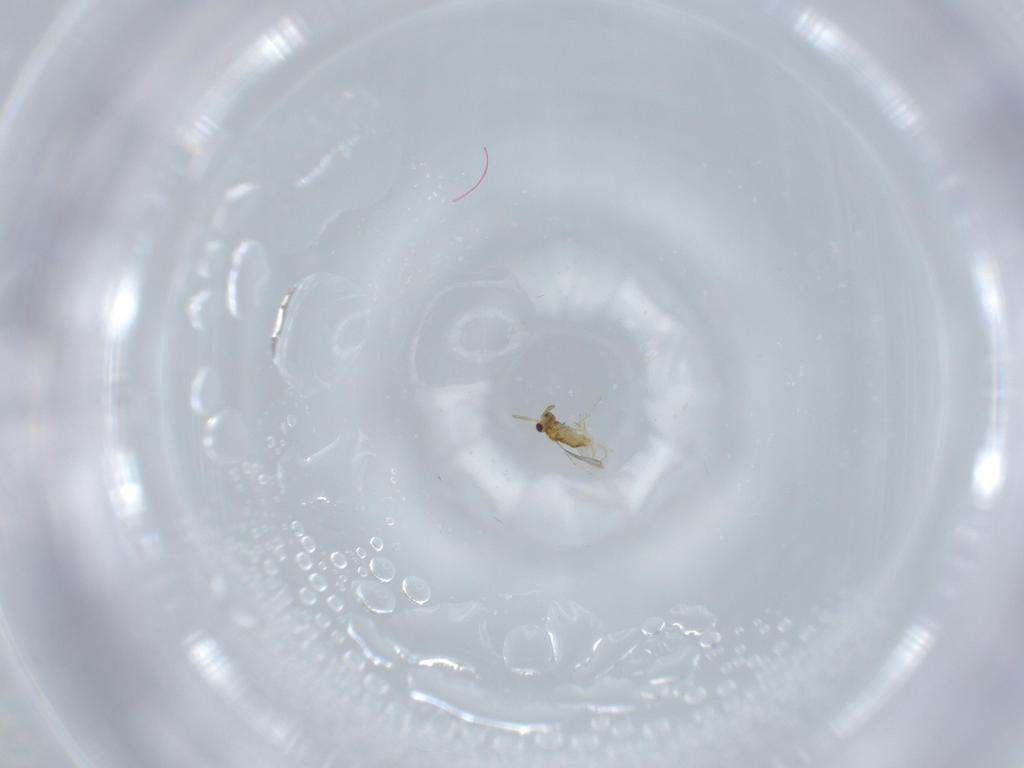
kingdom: Animalia
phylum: Arthropoda
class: Insecta
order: Hymenoptera
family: Aphelinidae
